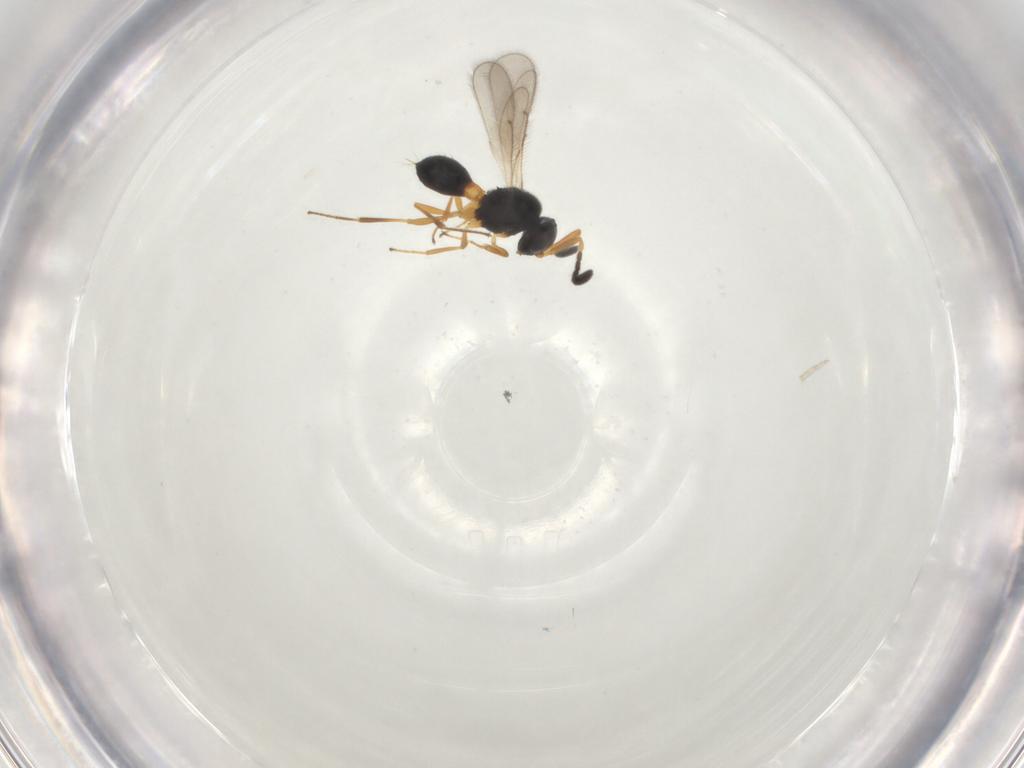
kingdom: Animalia
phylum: Arthropoda
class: Insecta
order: Hymenoptera
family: Scelionidae
